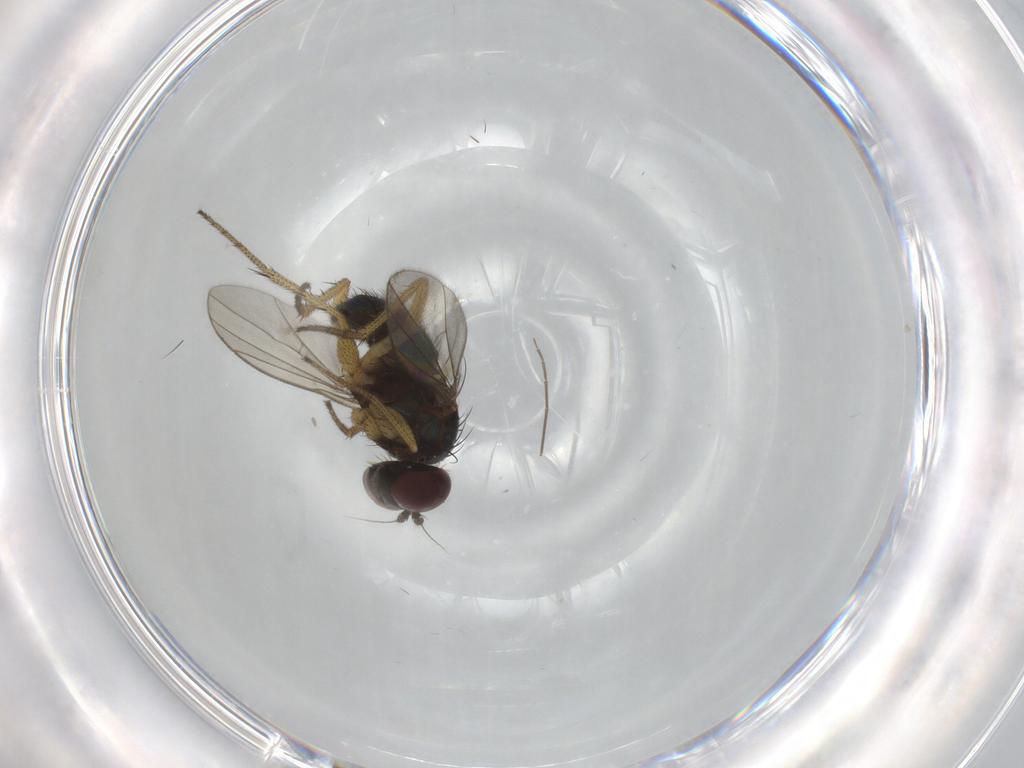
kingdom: Animalia
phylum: Arthropoda
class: Insecta
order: Diptera
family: Dolichopodidae
